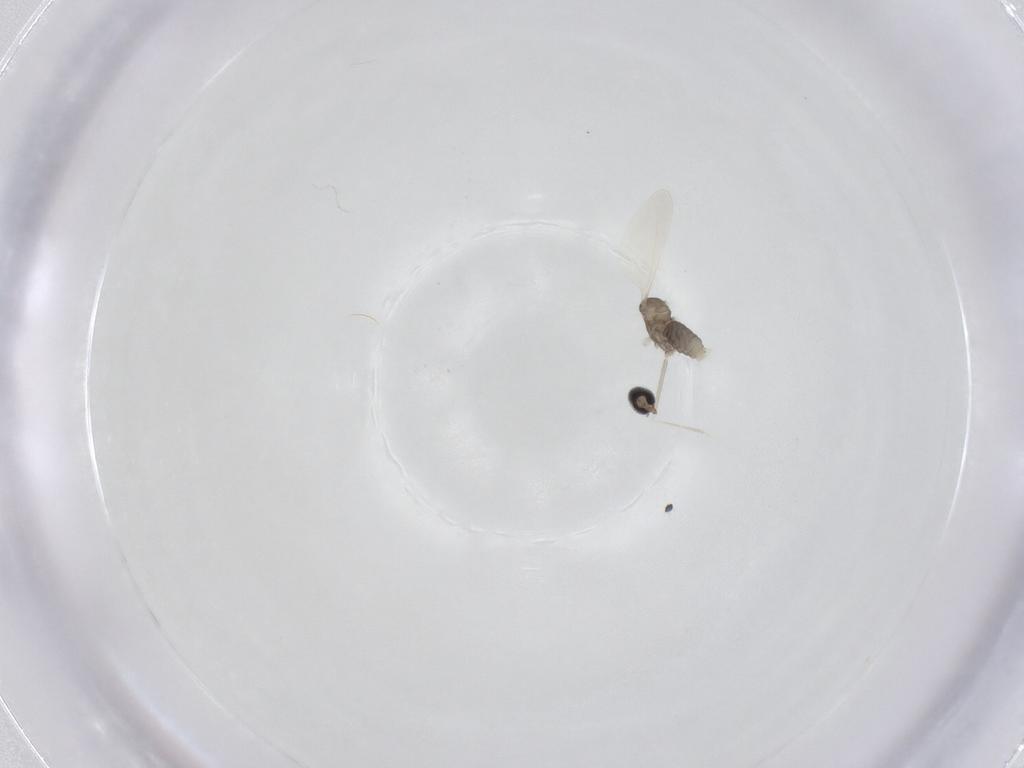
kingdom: Animalia
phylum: Arthropoda
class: Insecta
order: Diptera
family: Cecidomyiidae
